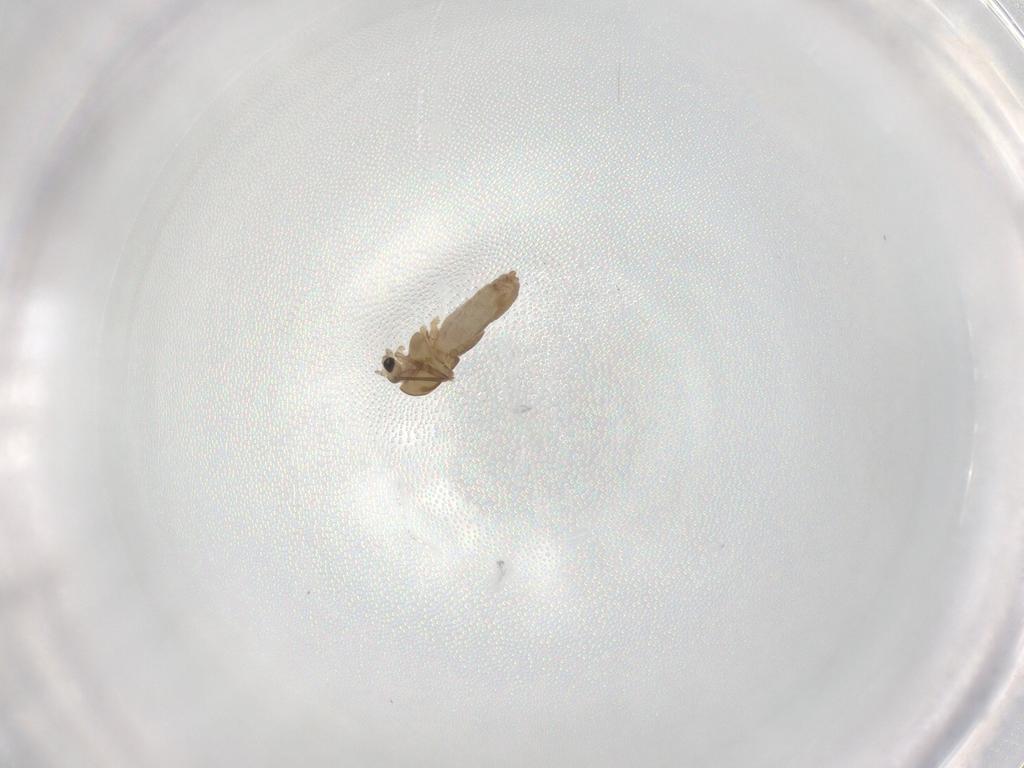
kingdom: Animalia
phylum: Arthropoda
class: Insecta
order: Diptera
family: Chironomidae
